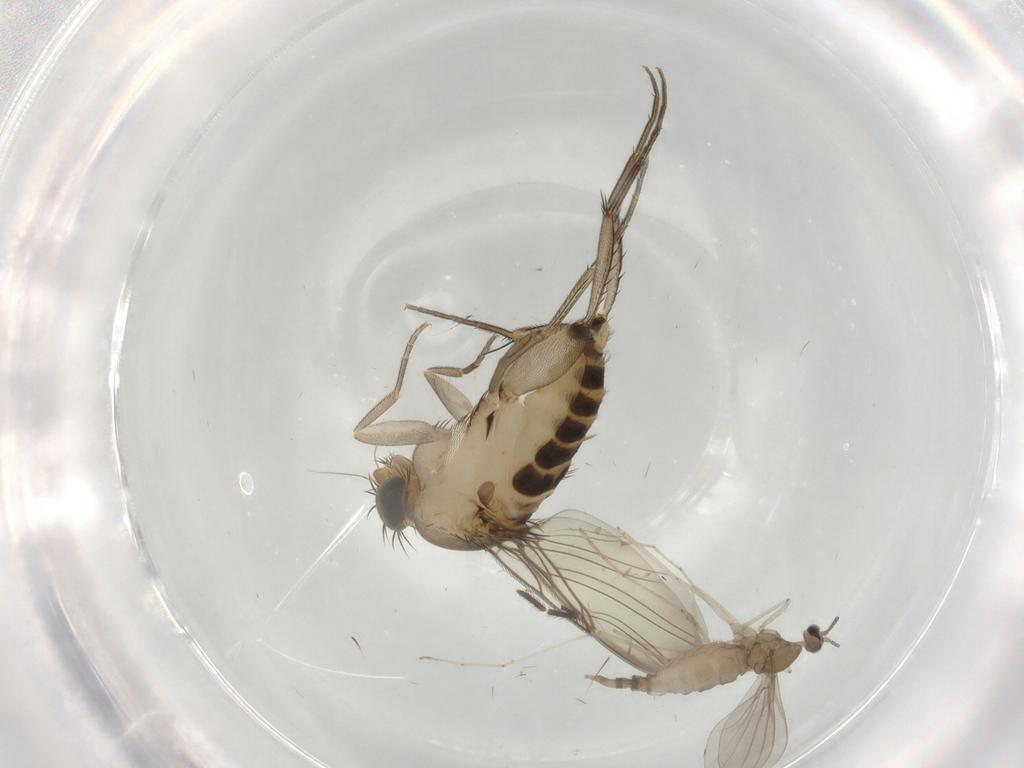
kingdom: Animalia
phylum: Arthropoda
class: Insecta
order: Diptera
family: Phoridae
